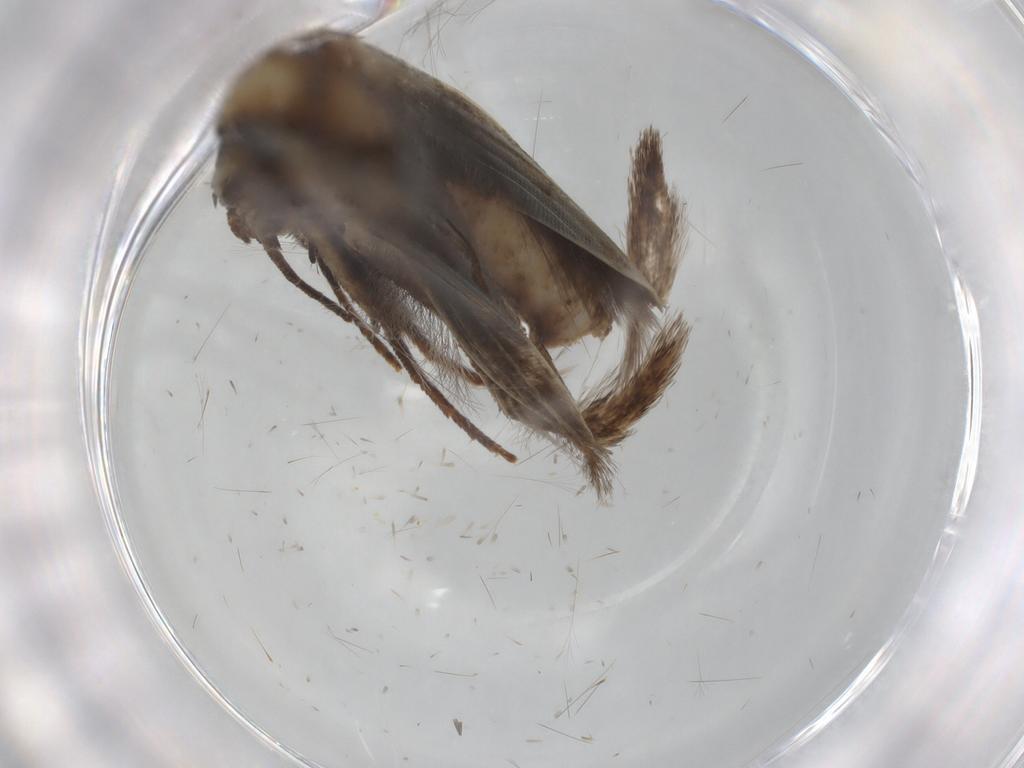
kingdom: Animalia
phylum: Arthropoda
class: Insecta
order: Lepidoptera
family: Erebidae
